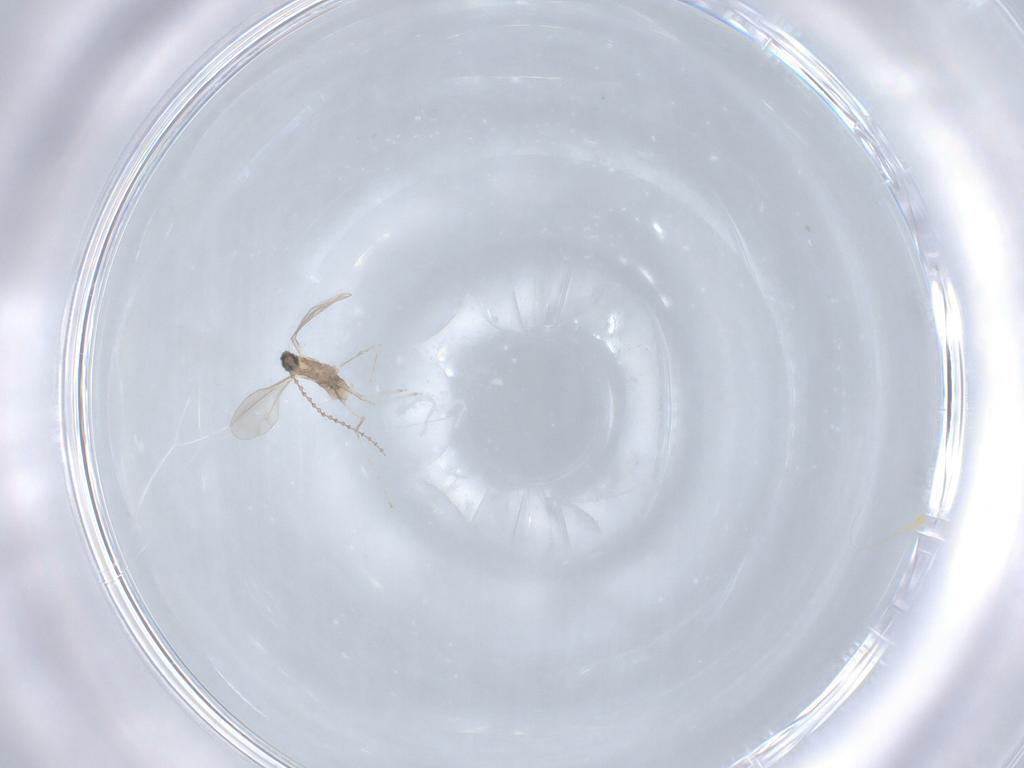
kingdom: Animalia
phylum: Arthropoda
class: Insecta
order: Diptera
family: Cecidomyiidae
